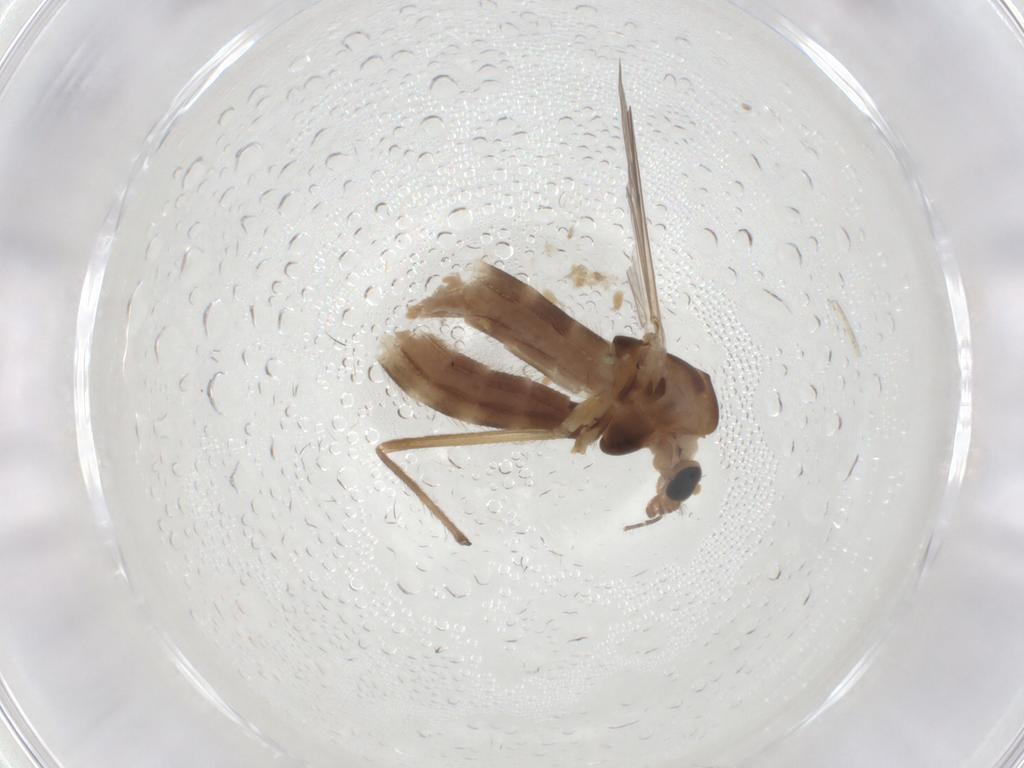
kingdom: Animalia
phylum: Arthropoda
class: Insecta
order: Diptera
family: Chironomidae
